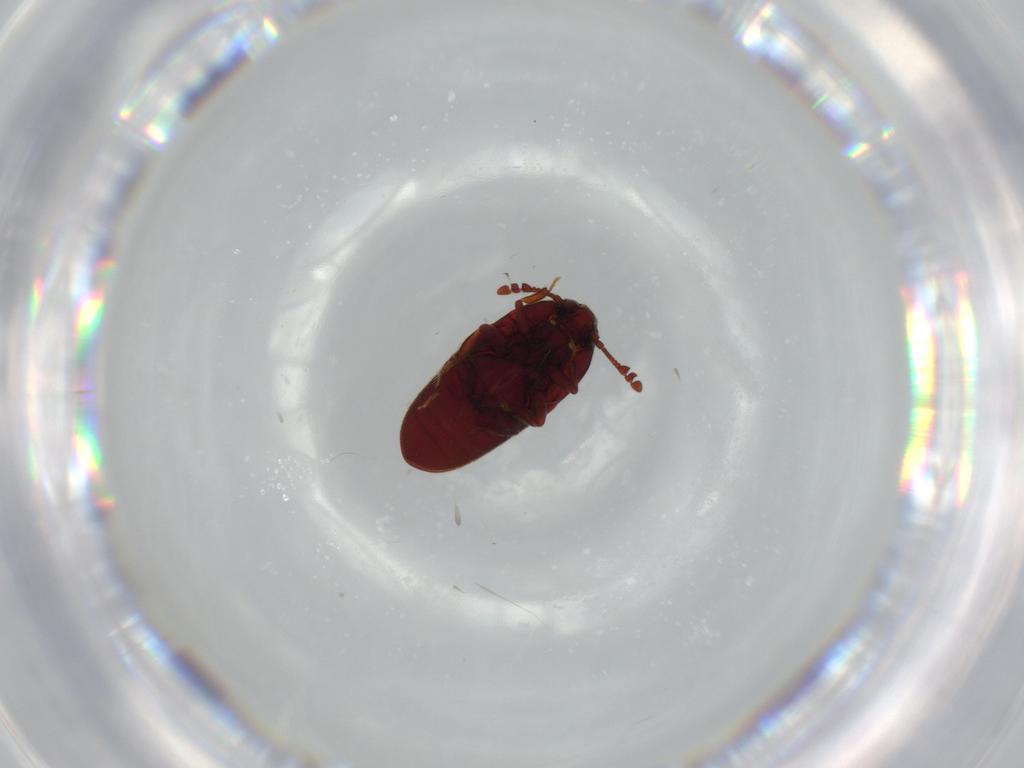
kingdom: Animalia
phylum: Arthropoda
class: Insecta
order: Coleoptera
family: Throscidae
